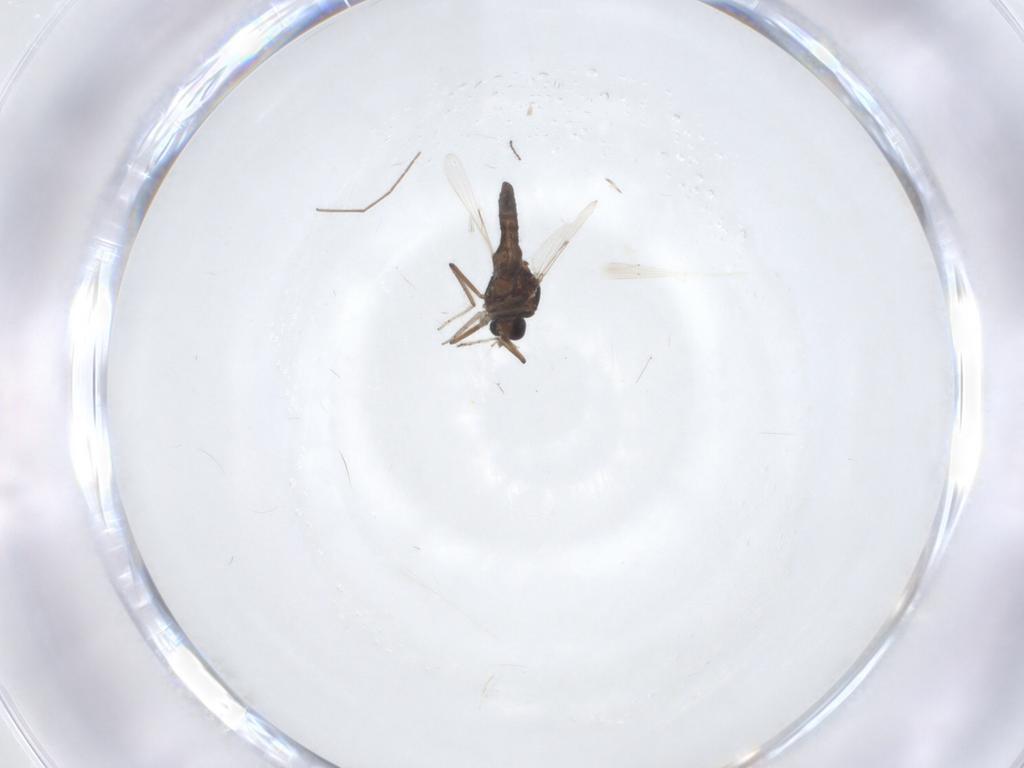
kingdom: Animalia
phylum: Arthropoda
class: Insecta
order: Diptera
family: Ceratopogonidae
